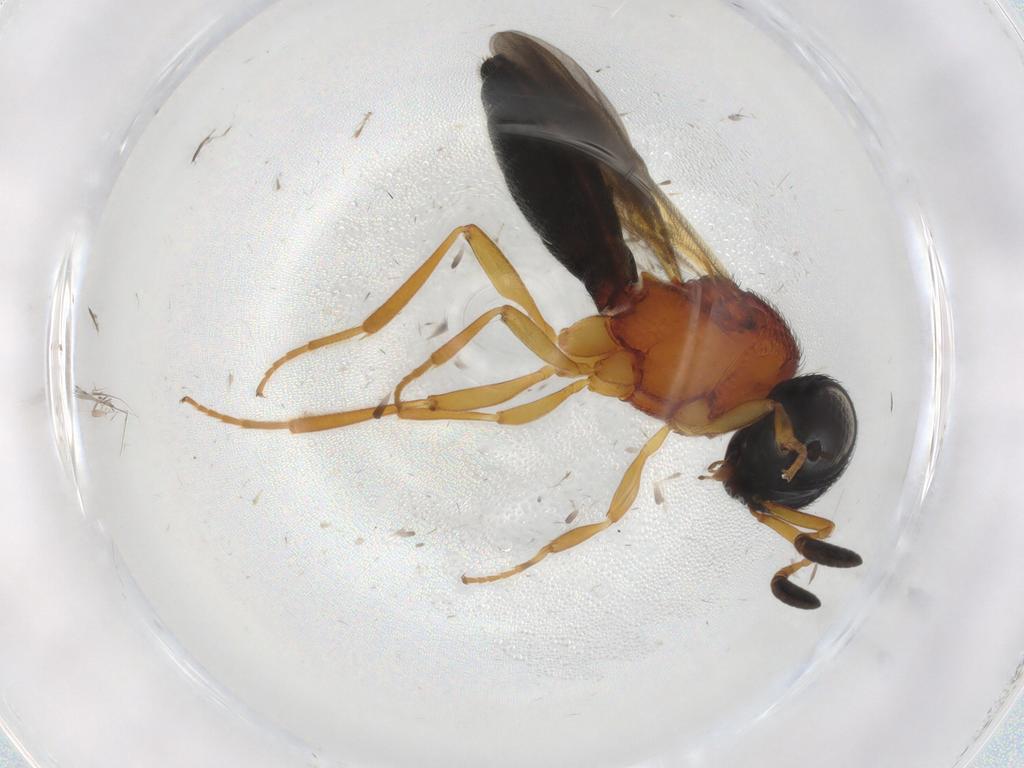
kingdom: Animalia
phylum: Arthropoda
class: Insecta
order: Hymenoptera
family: Scelionidae
